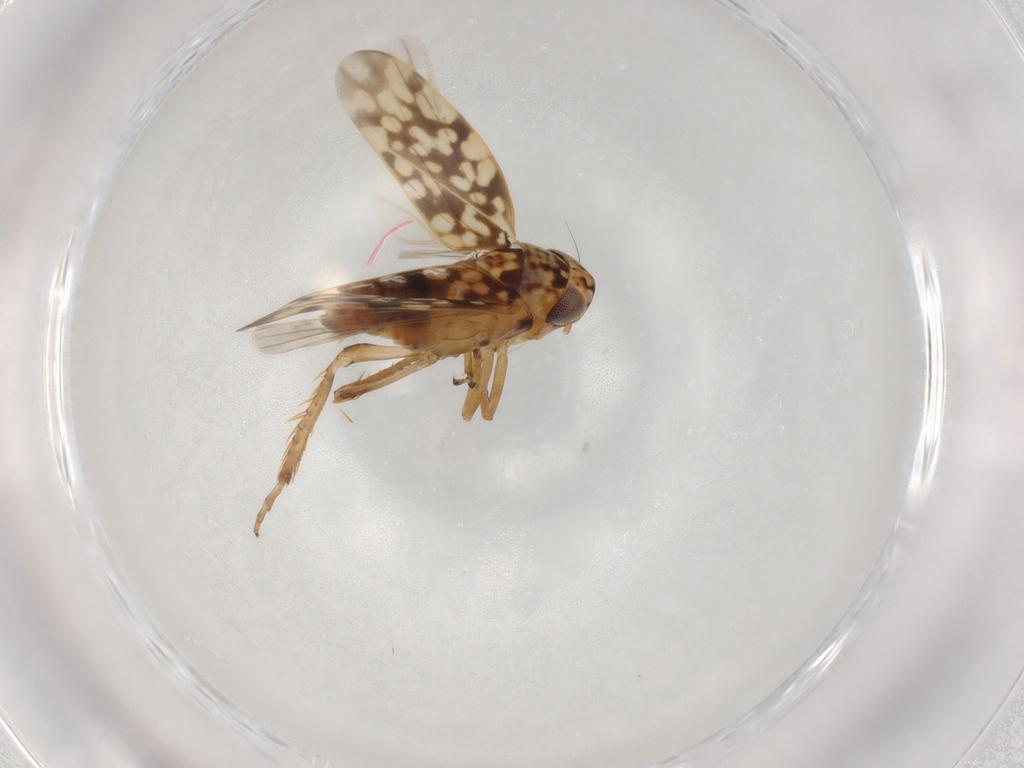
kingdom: Animalia
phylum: Arthropoda
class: Insecta
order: Hemiptera
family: Cicadellidae
